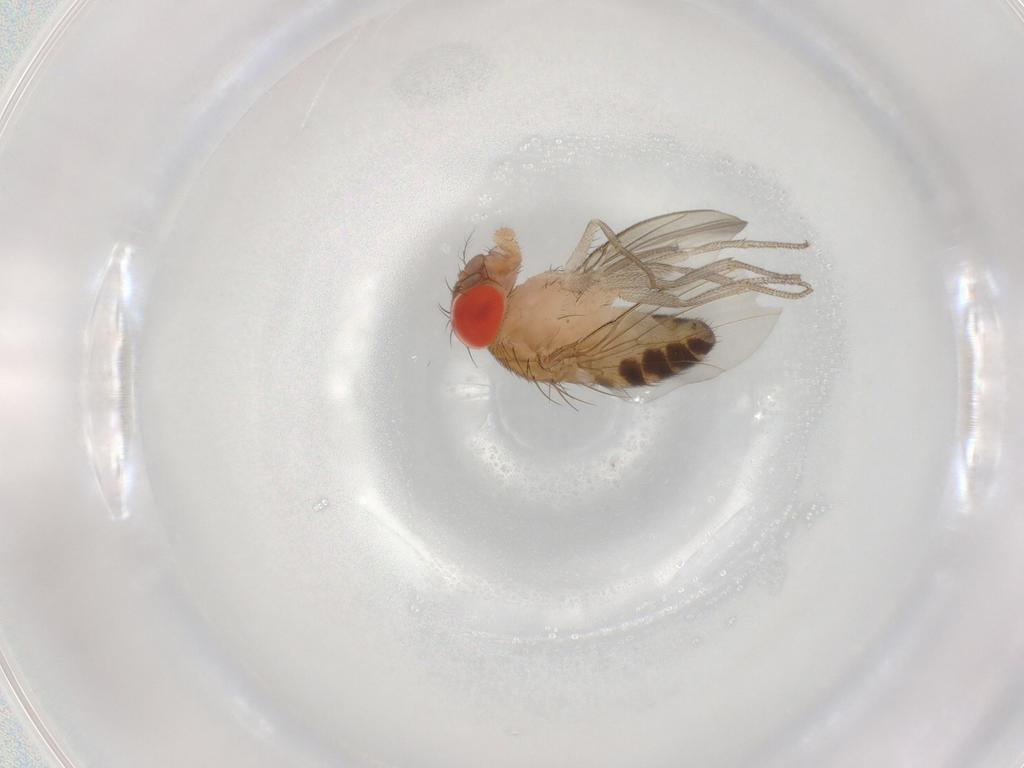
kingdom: Animalia
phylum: Arthropoda
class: Insecta
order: Diptera
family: Drosophilidae
